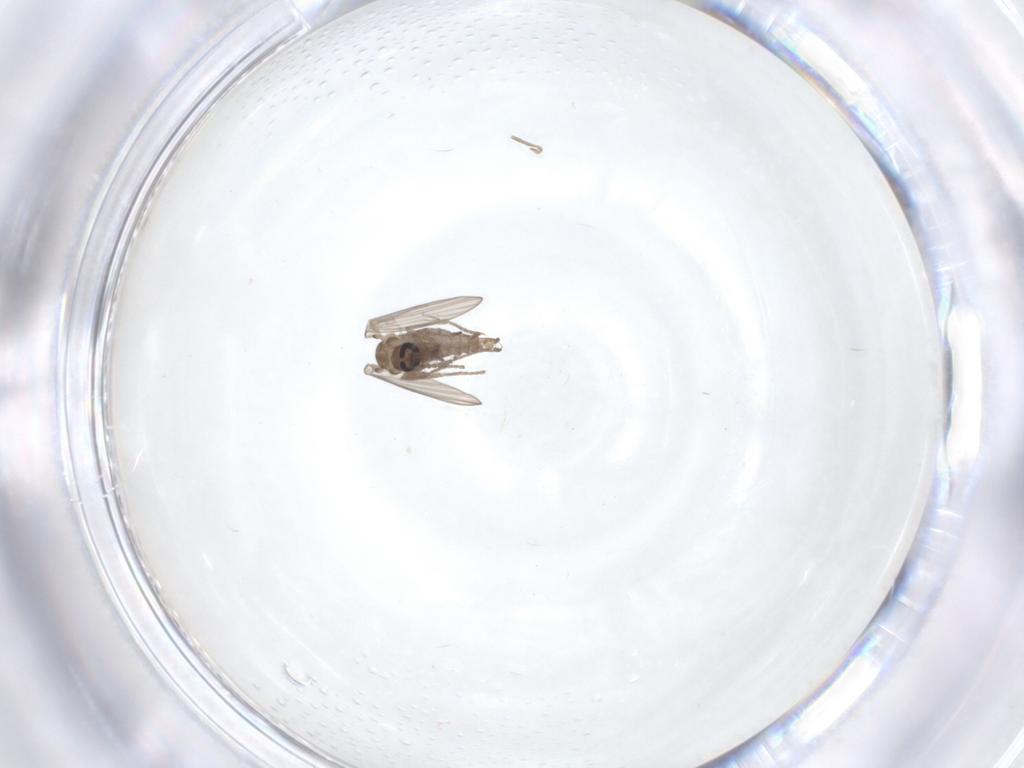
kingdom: Animalia
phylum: Arthropoda
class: Insecta
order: Diptera
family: Psychodidae
